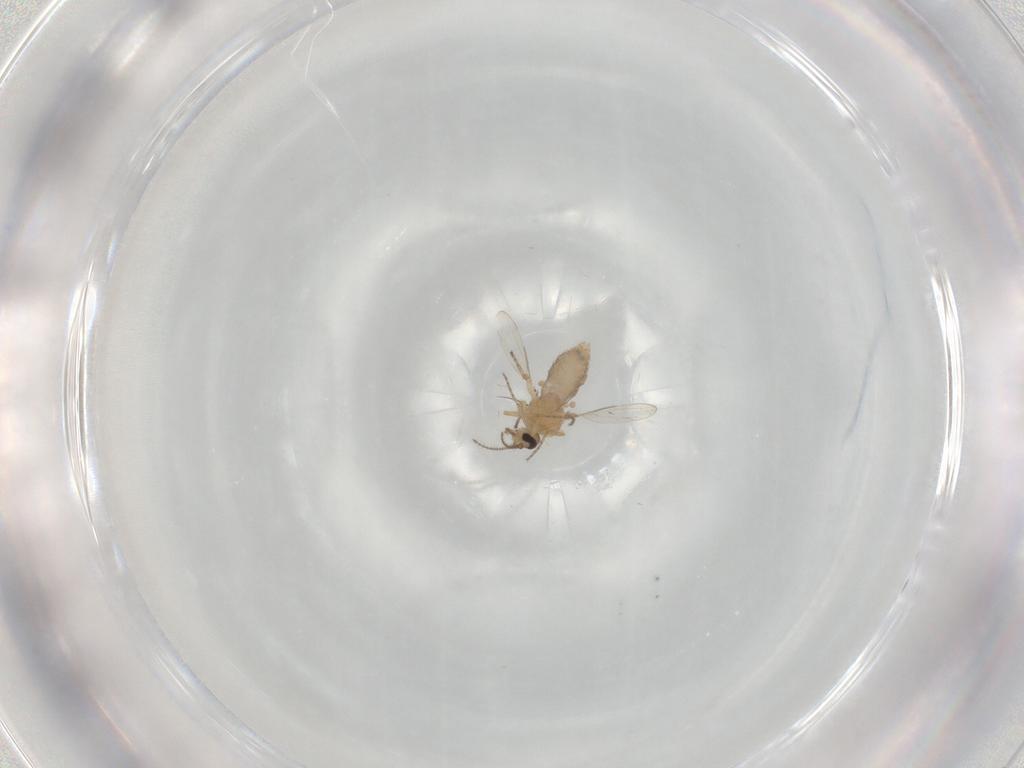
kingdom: Animalia
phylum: Arthropoda
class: Insecta
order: Diptera
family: Ceratopogonidae
